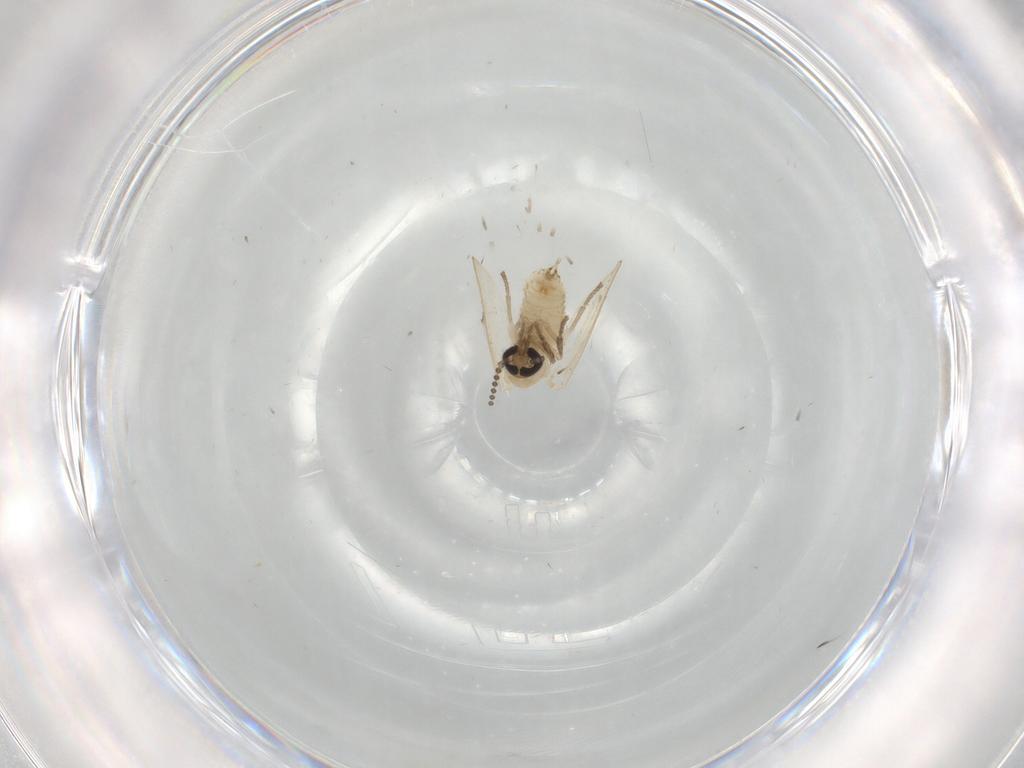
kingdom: Animalia
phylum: Arthropoda
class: Insecta
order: Diptera
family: Psychodidae
